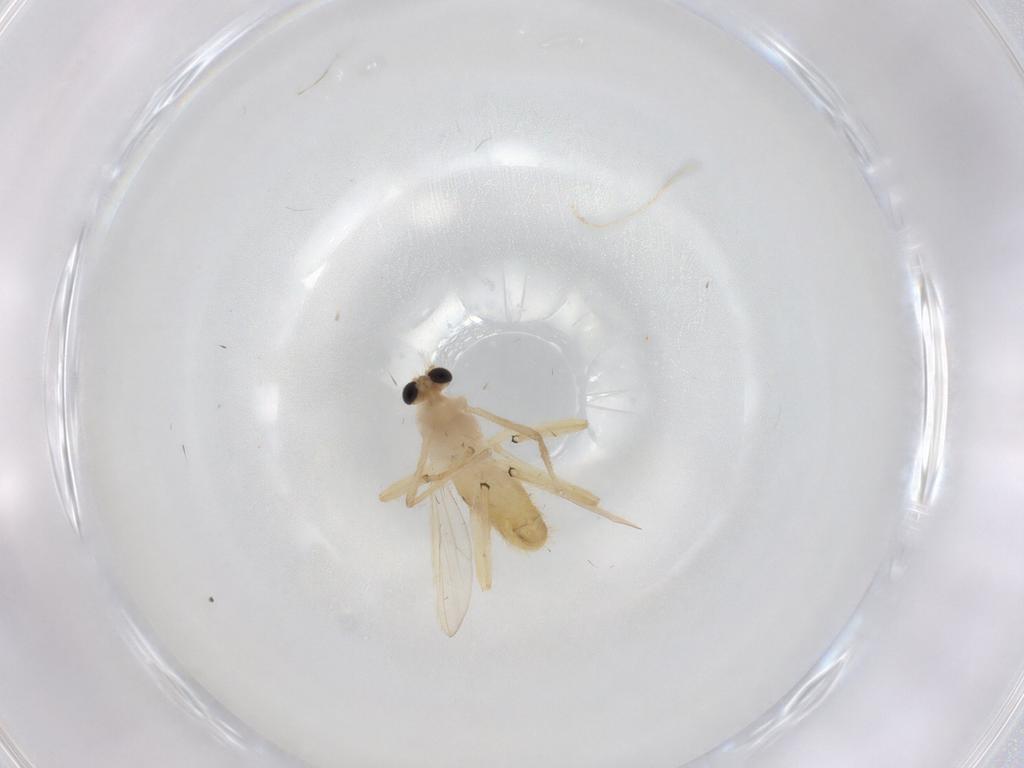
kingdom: Animalia
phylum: Arthropoda
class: Insecta
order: Diptera
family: Chironomidae
